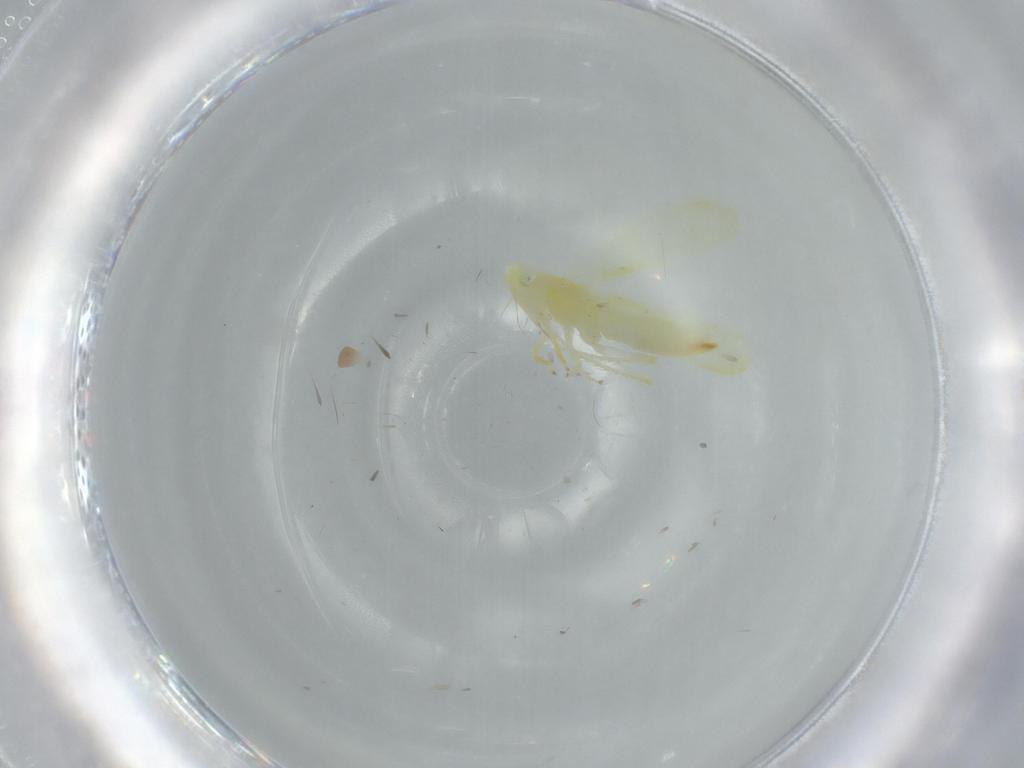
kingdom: Animalia
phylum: Arthropoda
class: Insecta
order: Hemiptera
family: Cicadellidae
